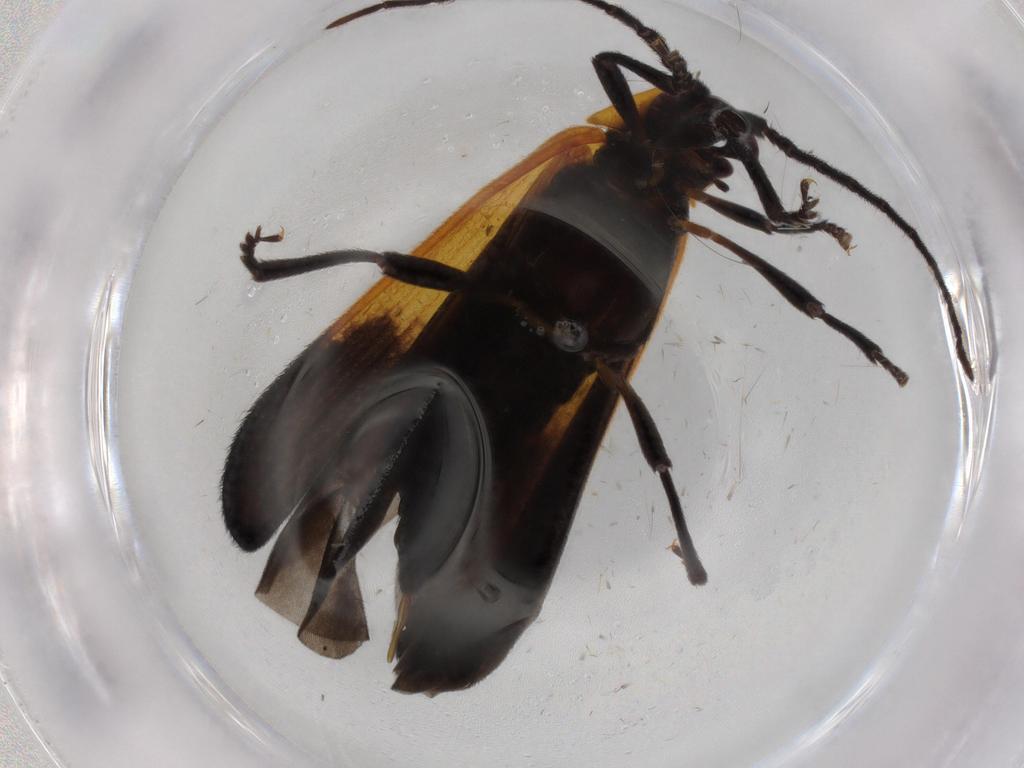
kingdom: Animalia
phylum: Arthropoda
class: Insecta
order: Coleoptera
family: Lycidae
